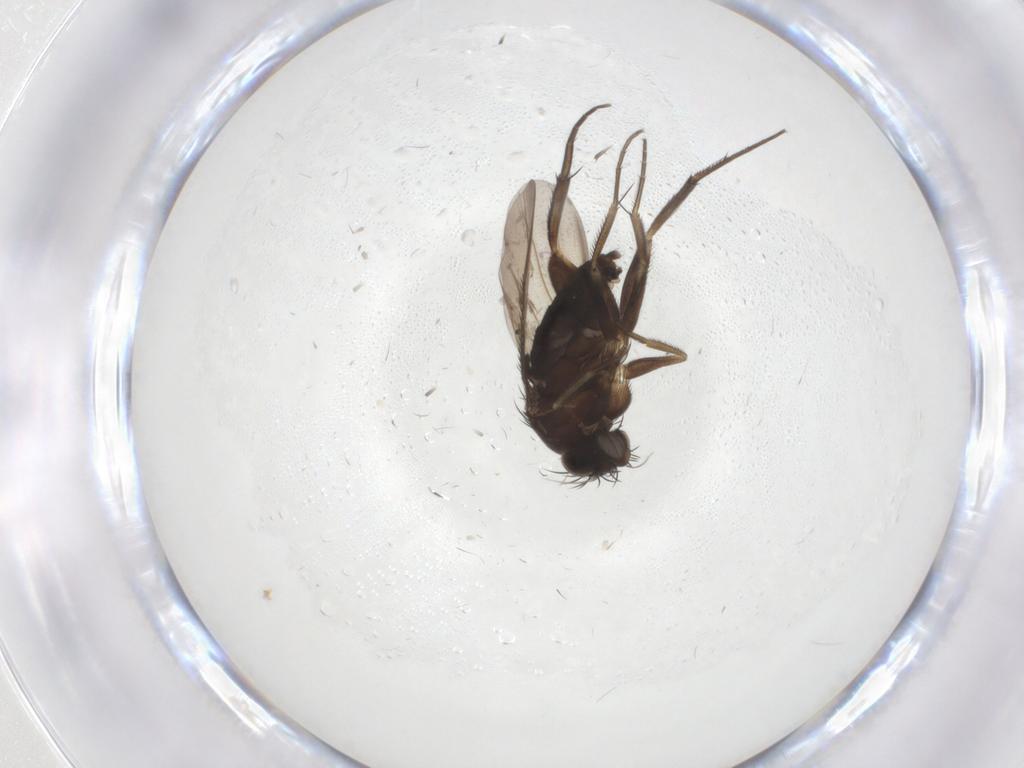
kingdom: Animalia
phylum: Arthropoda
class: Insecta
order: Diptera
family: Phoridae
